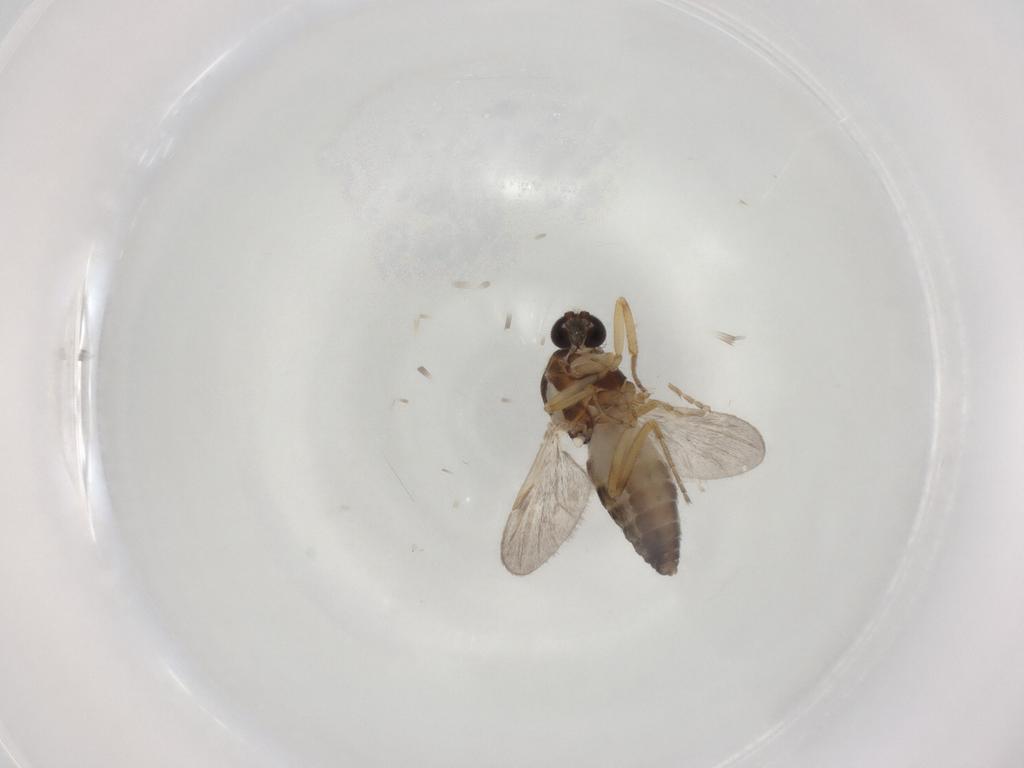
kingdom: Animalia
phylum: Arthropoda
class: Insecta
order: Diptera
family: Ceratopogonidae
